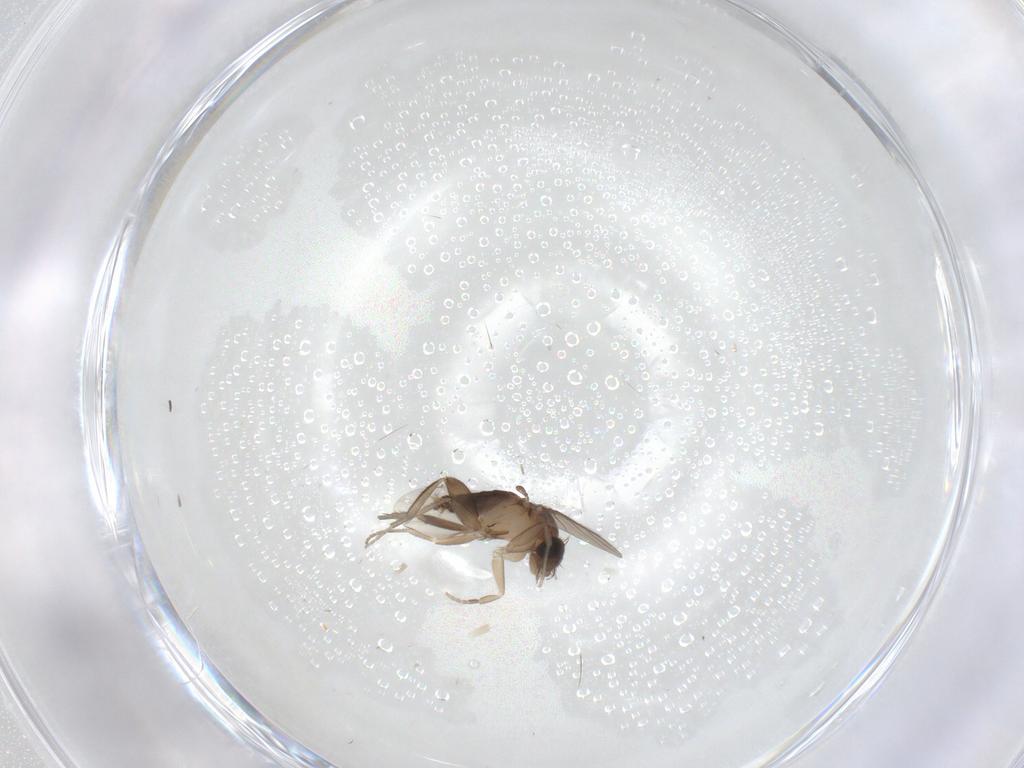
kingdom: Animalia
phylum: Arthropoda
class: Insecta
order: Diptera
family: Phoridae
